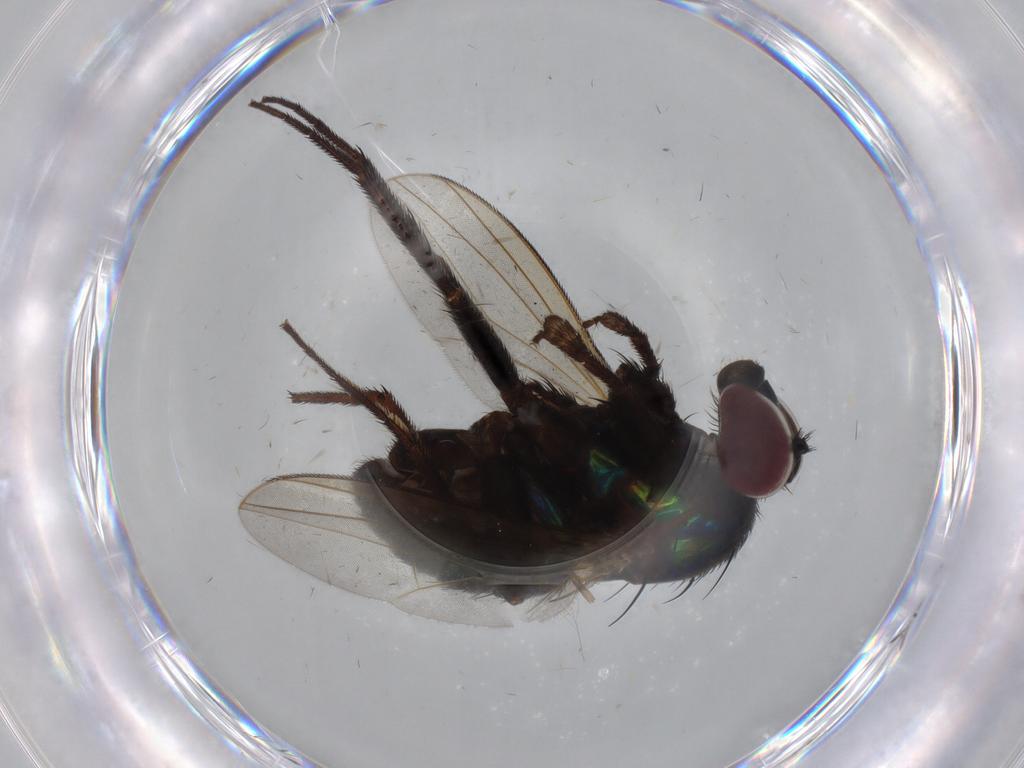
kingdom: Animalia
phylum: Arthropoda
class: Insecta
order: Diptera
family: Dolichopodidae
